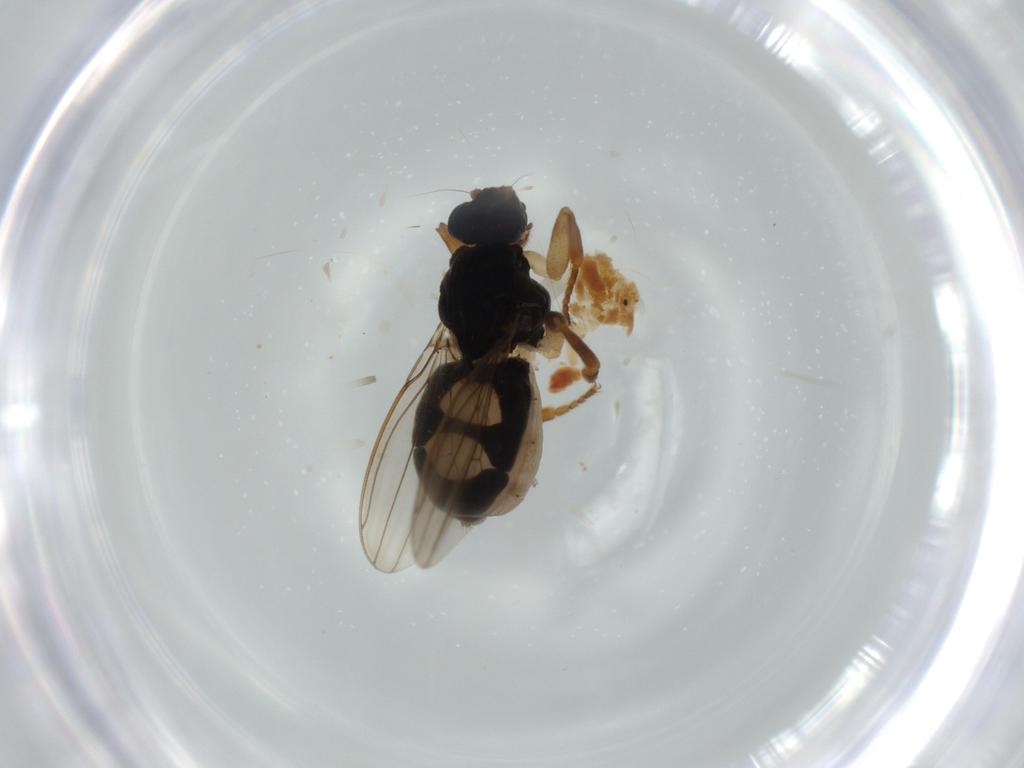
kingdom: Animalia
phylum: Arthropoda
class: Insecta
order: Diptera
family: Sphaeroceridae
